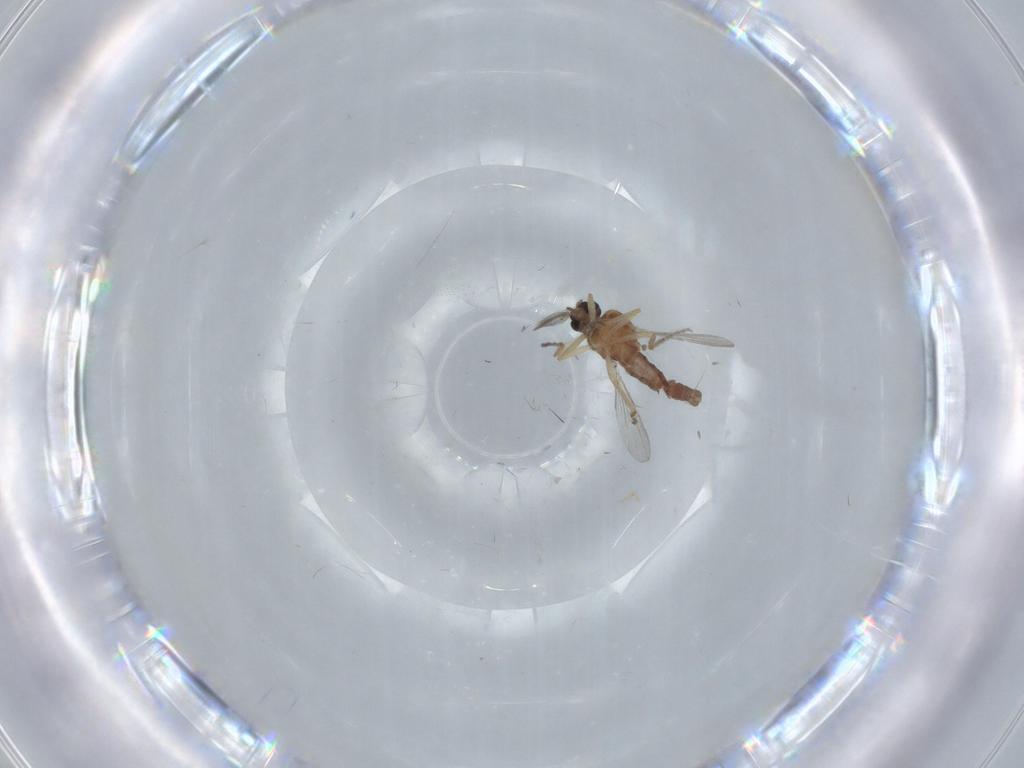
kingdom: Animalia
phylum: Arthropoda
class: Insecta
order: Diptera
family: Ceratopogonidae
